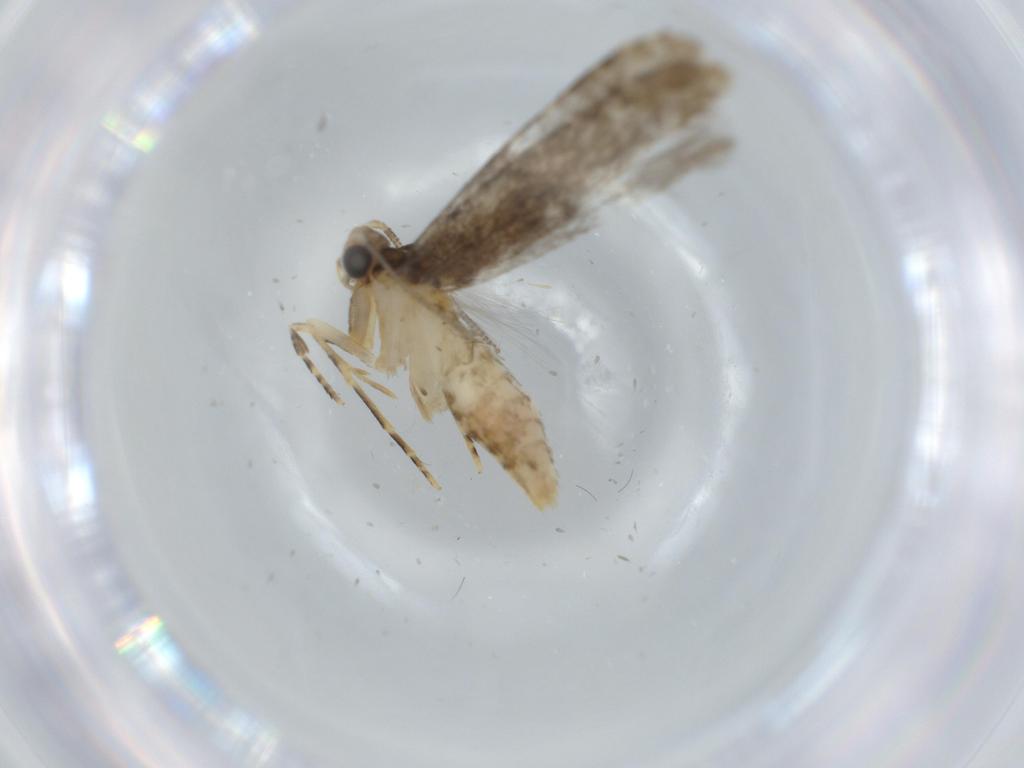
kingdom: Animalia
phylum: Arthropoda
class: Insecta
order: Lepidoptera
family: Tineidae
